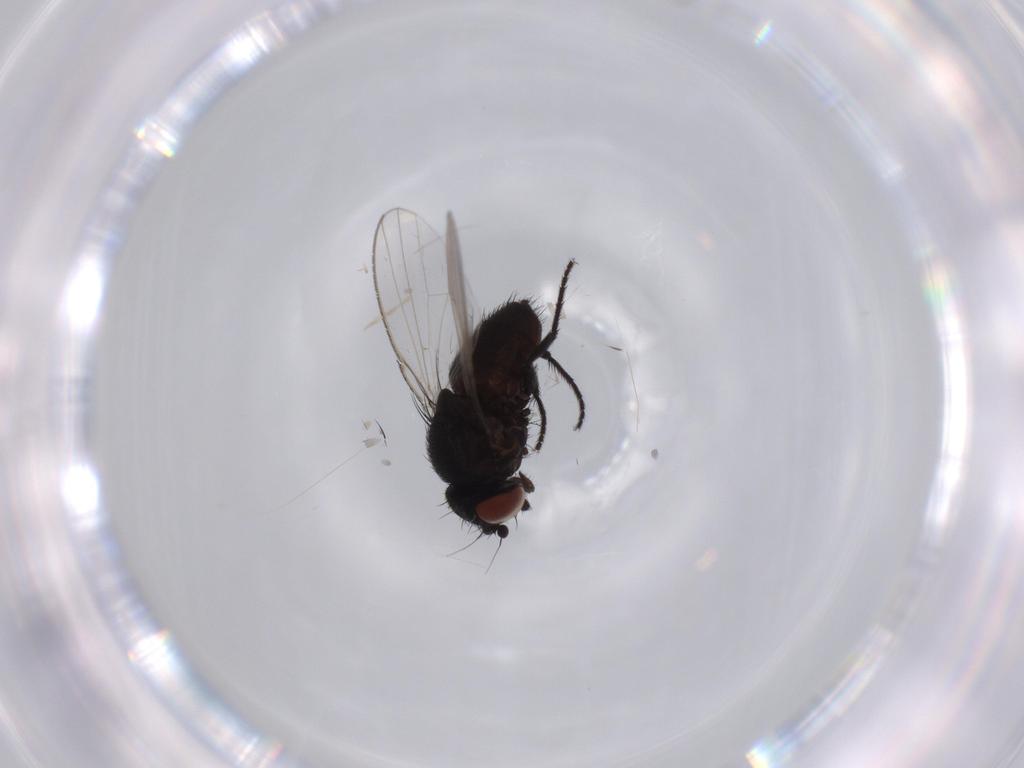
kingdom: Animalia
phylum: Arthropoda
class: Insecta
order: Diptera
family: Milichiidae
